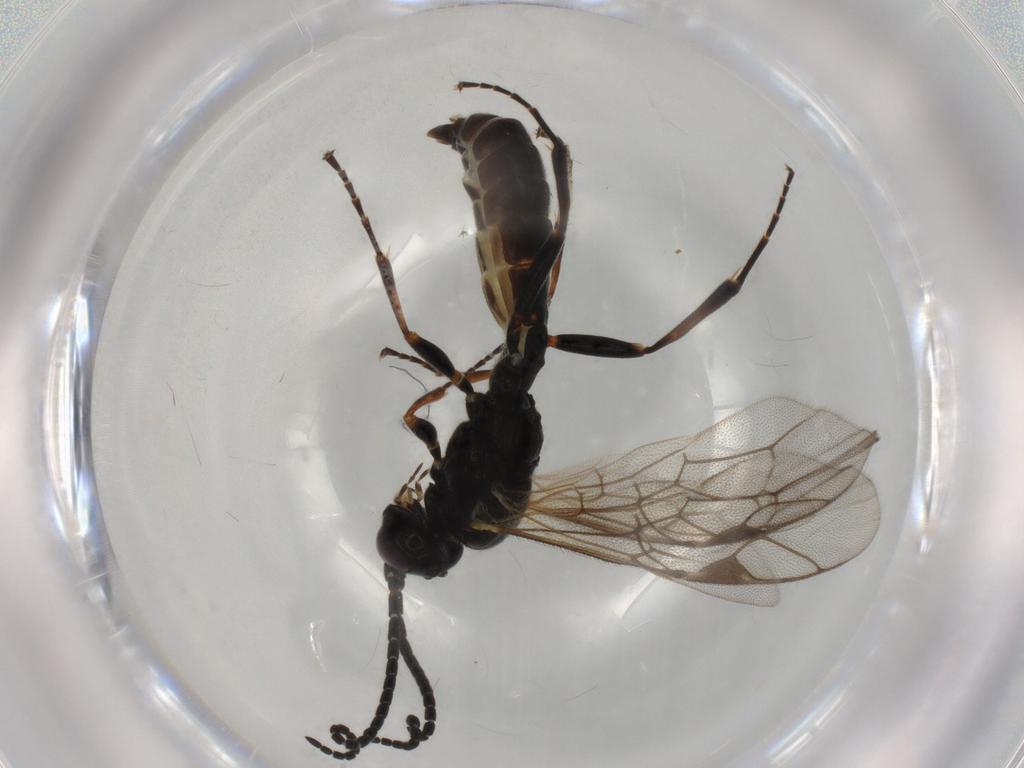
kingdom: Animalia
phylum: Arthropoda
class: Insecta
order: Hymenoptera
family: Ichneumonidae
